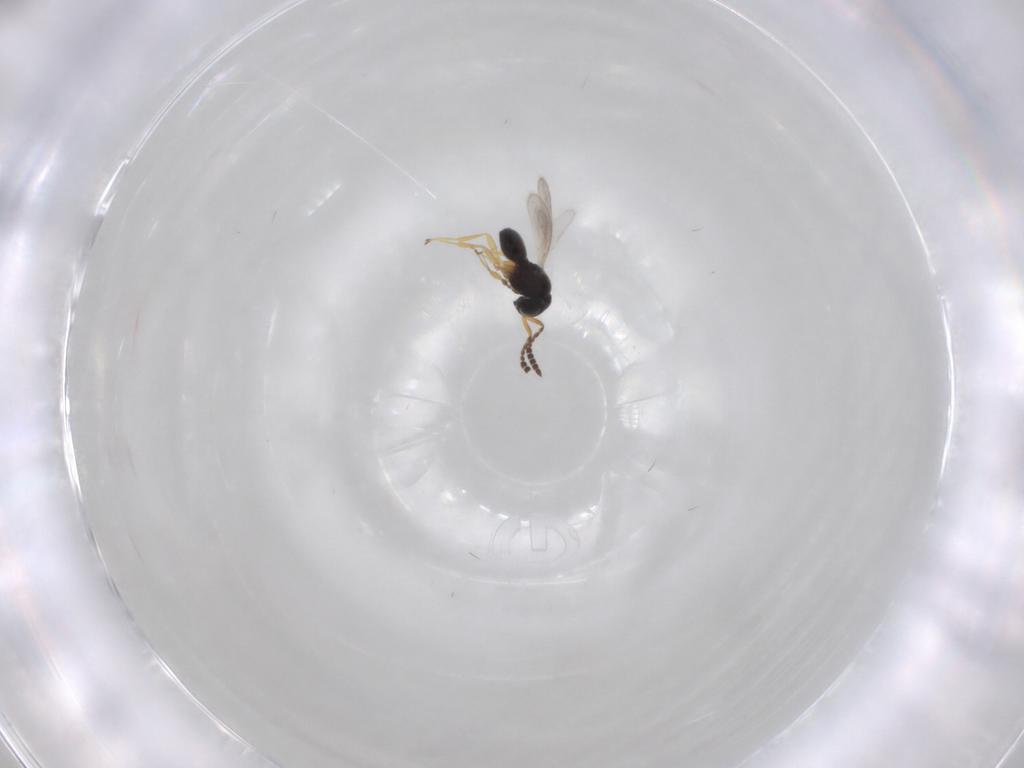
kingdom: Animalia
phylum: Arthropoda
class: Insecta
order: Hymenoptera
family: Scelionidae
